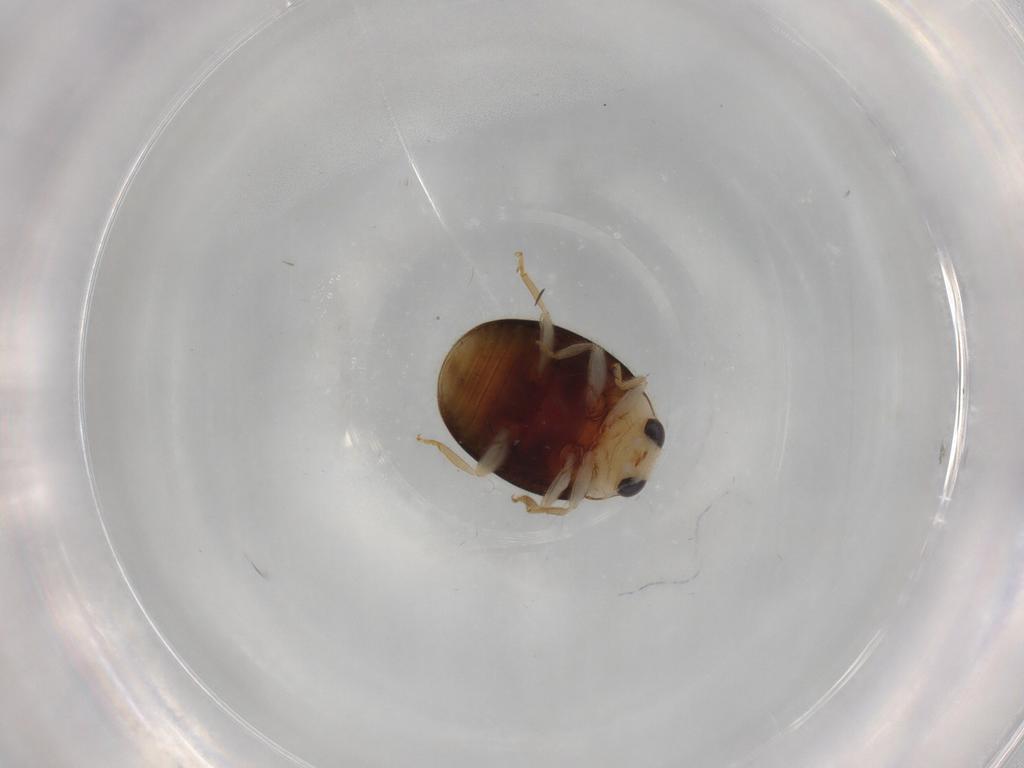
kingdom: Animalia
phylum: Arthropoda
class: Insecta
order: Coleoptera
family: Coccinellidae
